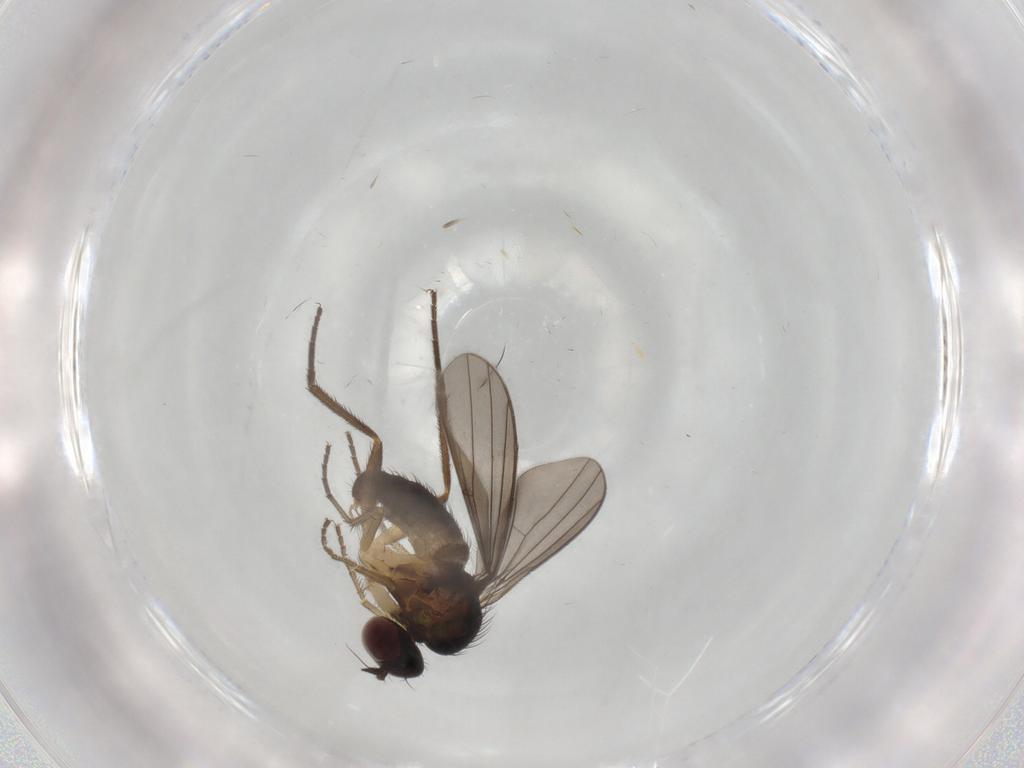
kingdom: Animalia
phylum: Arthropoda
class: Insecta
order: Diptera
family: Dolichopodidae
